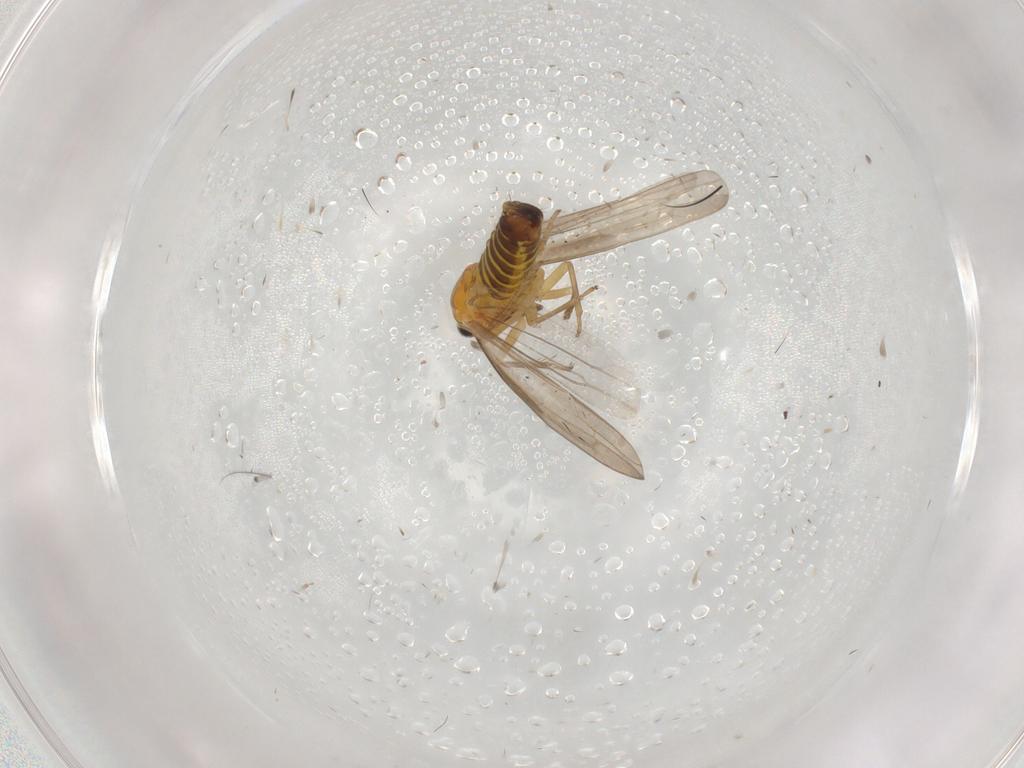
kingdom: Animalia
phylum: Arthropoda
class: Insecta
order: Hemiptera
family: Cicadellidae
